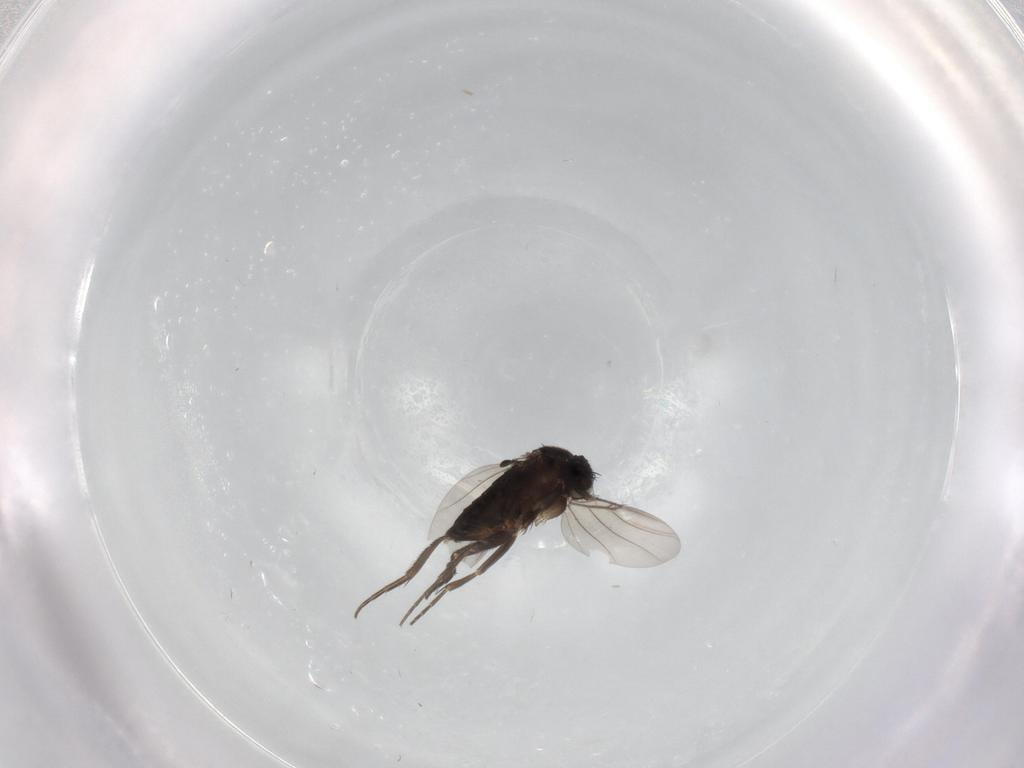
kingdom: Animalia
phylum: Arthropoda
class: Insecta
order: Diptera
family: Phoridae
